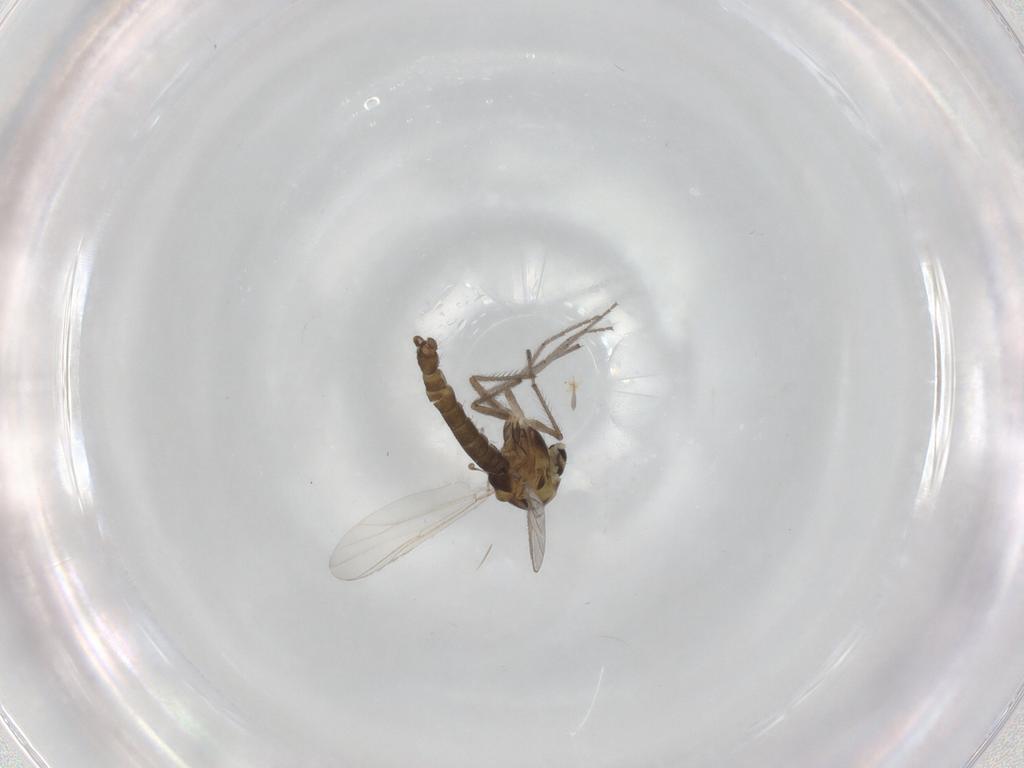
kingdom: Animalia
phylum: Arthropoda
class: Insecta
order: Diptera
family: Chironomidae
